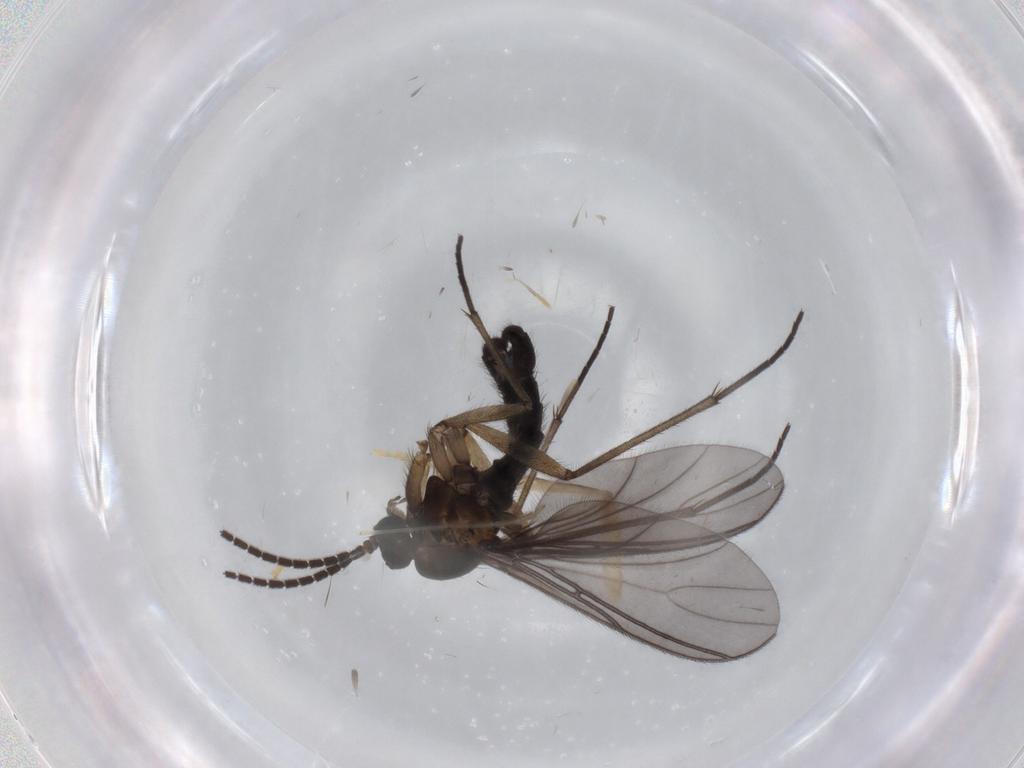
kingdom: Animalia
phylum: Arthropoda
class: Insecta
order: Diptera
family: Sciaridae
